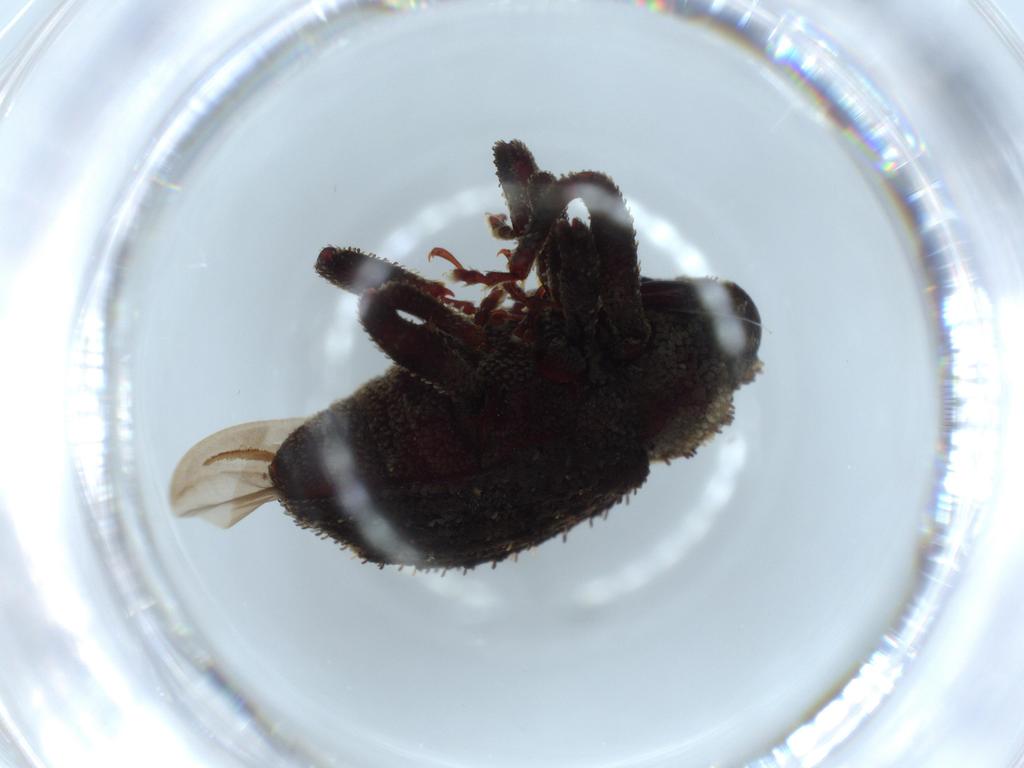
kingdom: Animalia
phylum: Arthropoda
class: Insecta
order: Coleoptera
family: Curculionidae
